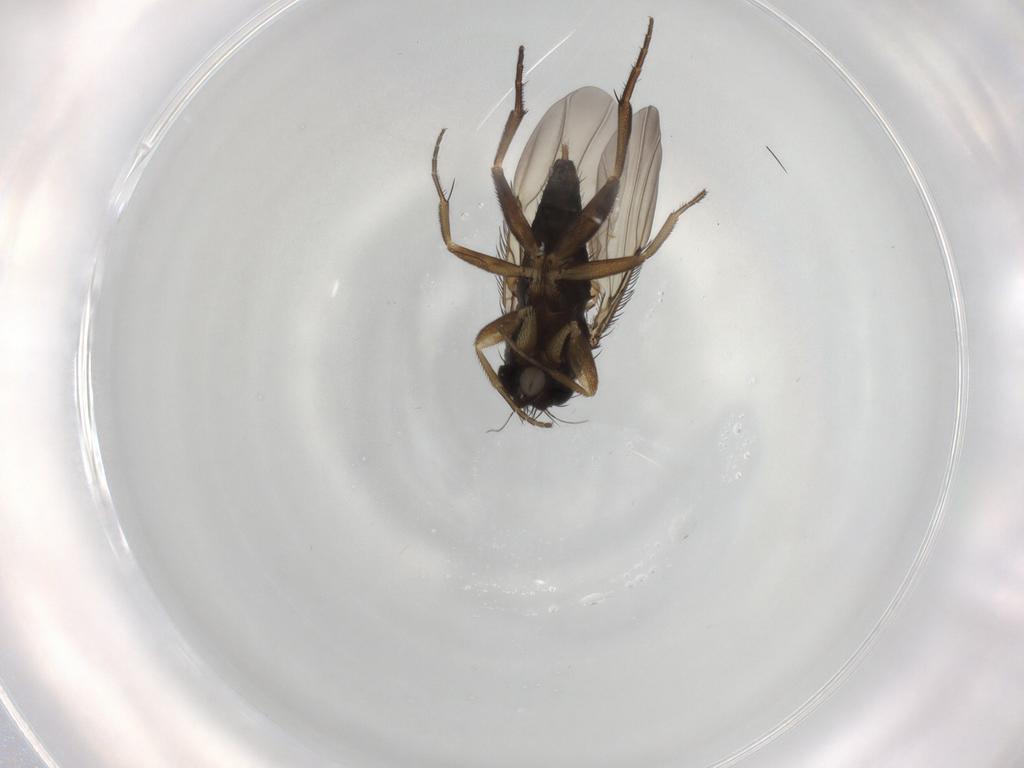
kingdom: Animalia
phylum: Arthropoda
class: Insecta
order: Diptera
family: Phoridae
